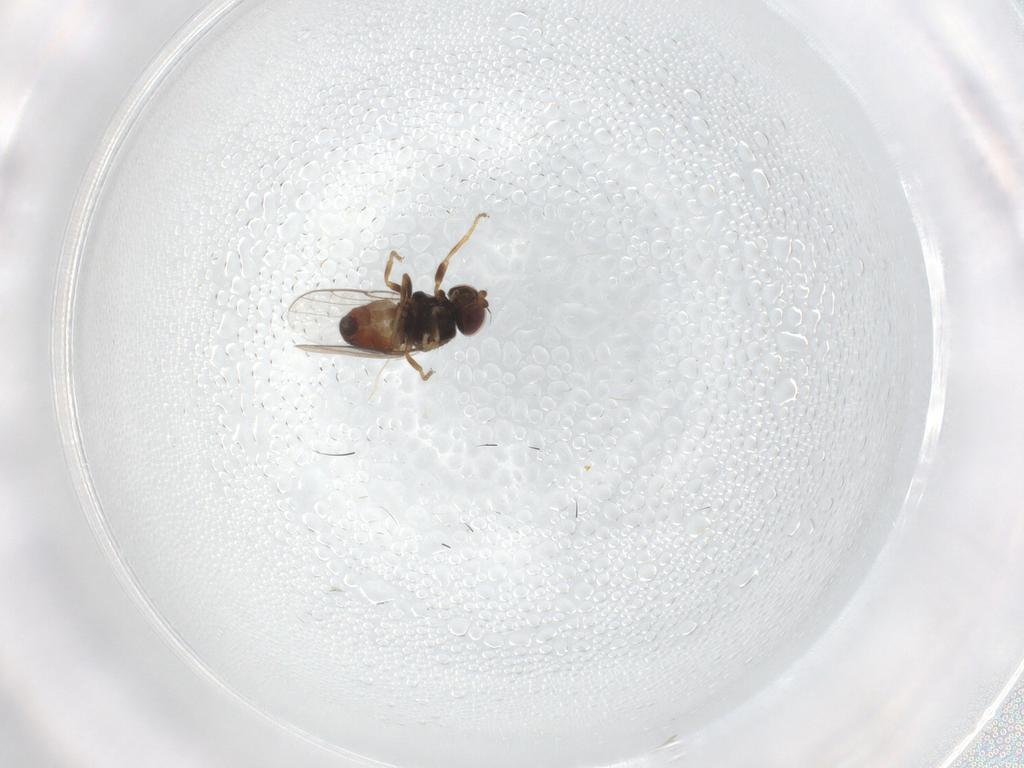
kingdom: Animalia
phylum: Arthropoda
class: Insecta
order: Diptera
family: Chloropidae
